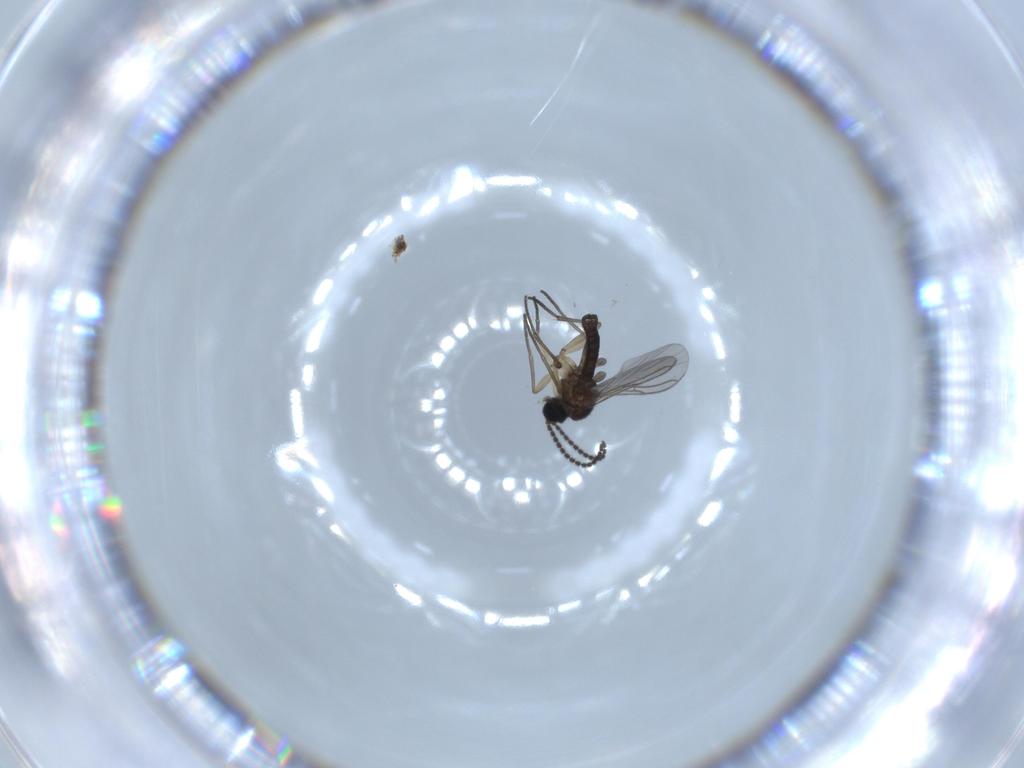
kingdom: Animalia
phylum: Arthropoda
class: Insecta
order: Diptera
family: Sciaridae
